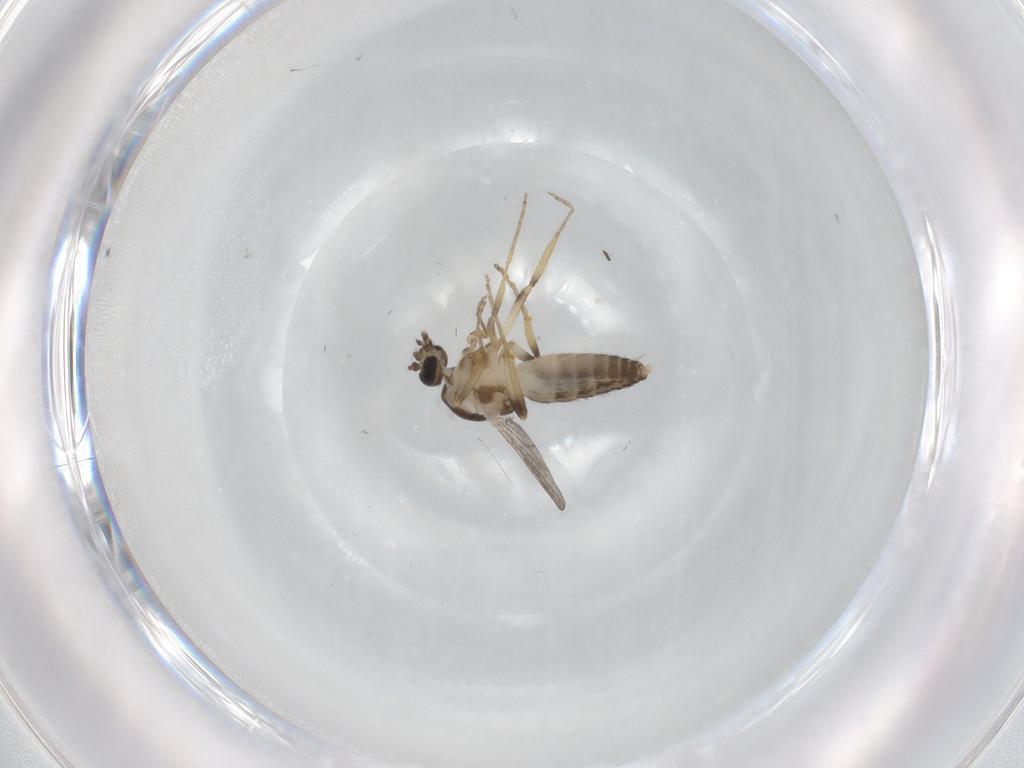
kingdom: Animalia
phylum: Arthropoda
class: Insecta
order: Diptera
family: Ceratopogonidae
